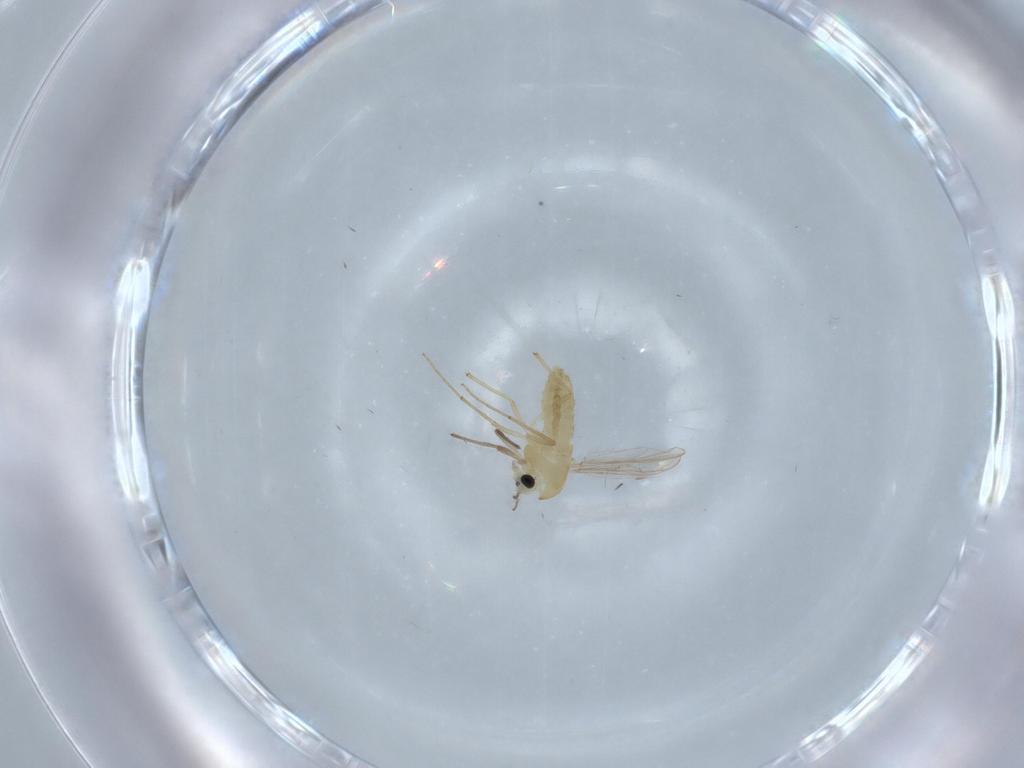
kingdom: Animalia
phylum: Arthropoda
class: Insecta
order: Diptera
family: Chironomidae
